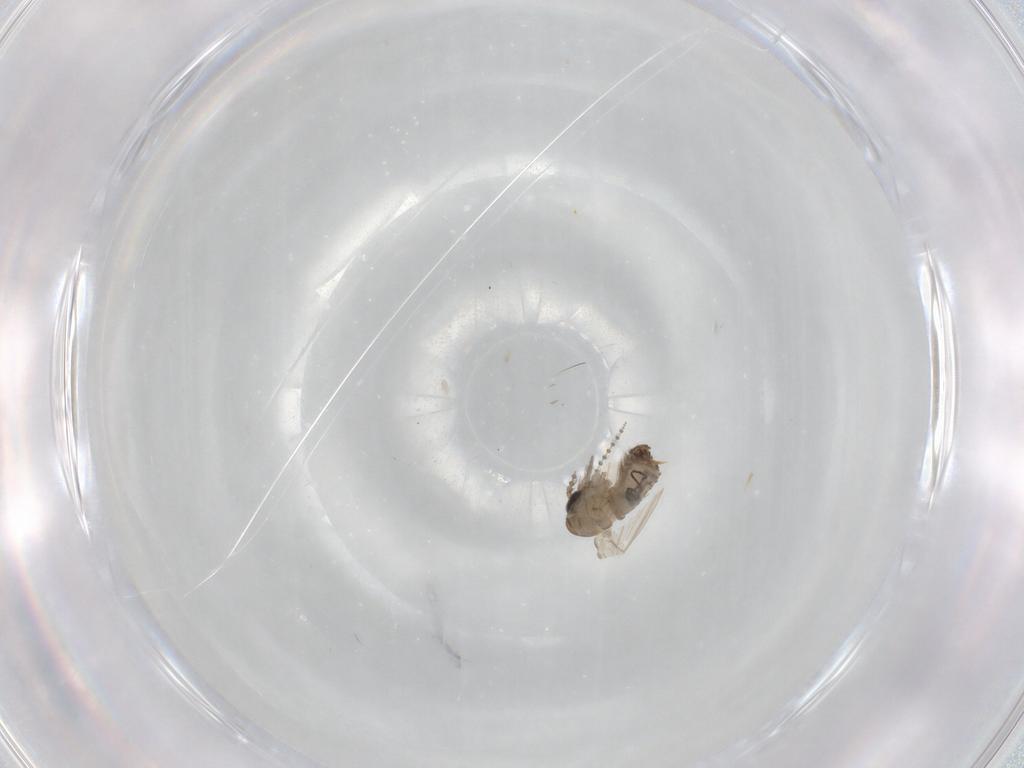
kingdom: Animalia
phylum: Arthropoda
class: Insecta
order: Diptera
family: Psychodidae
